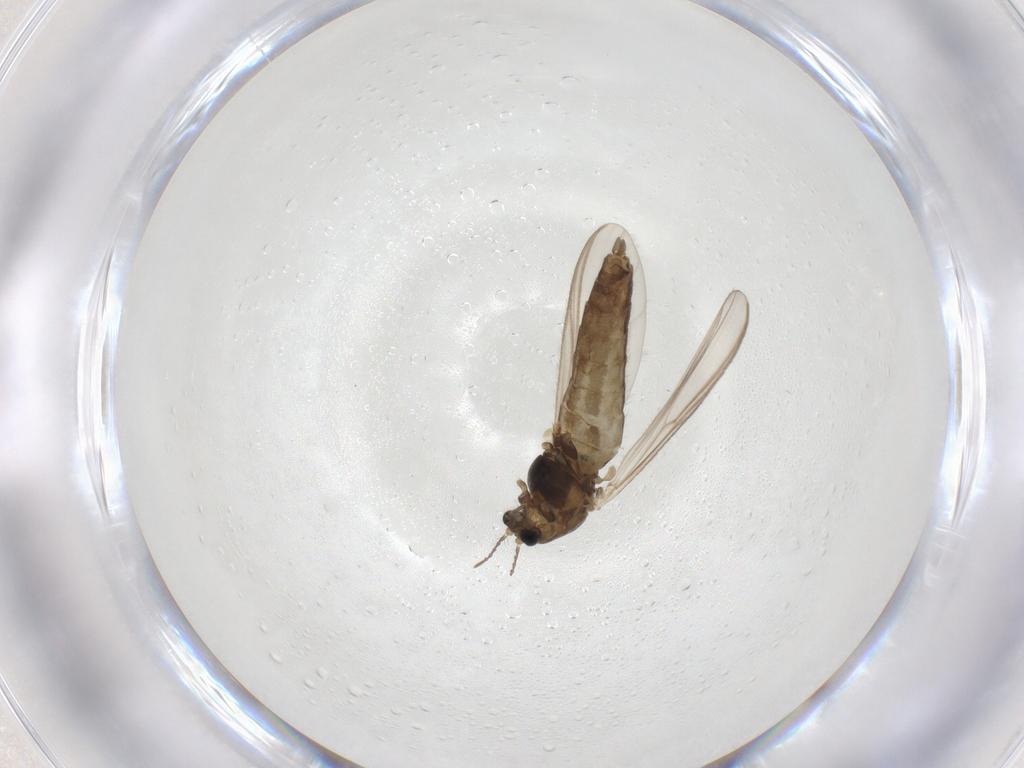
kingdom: Animalia
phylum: Arthropoda
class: Insecta
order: Diptera
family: Chironomidae
